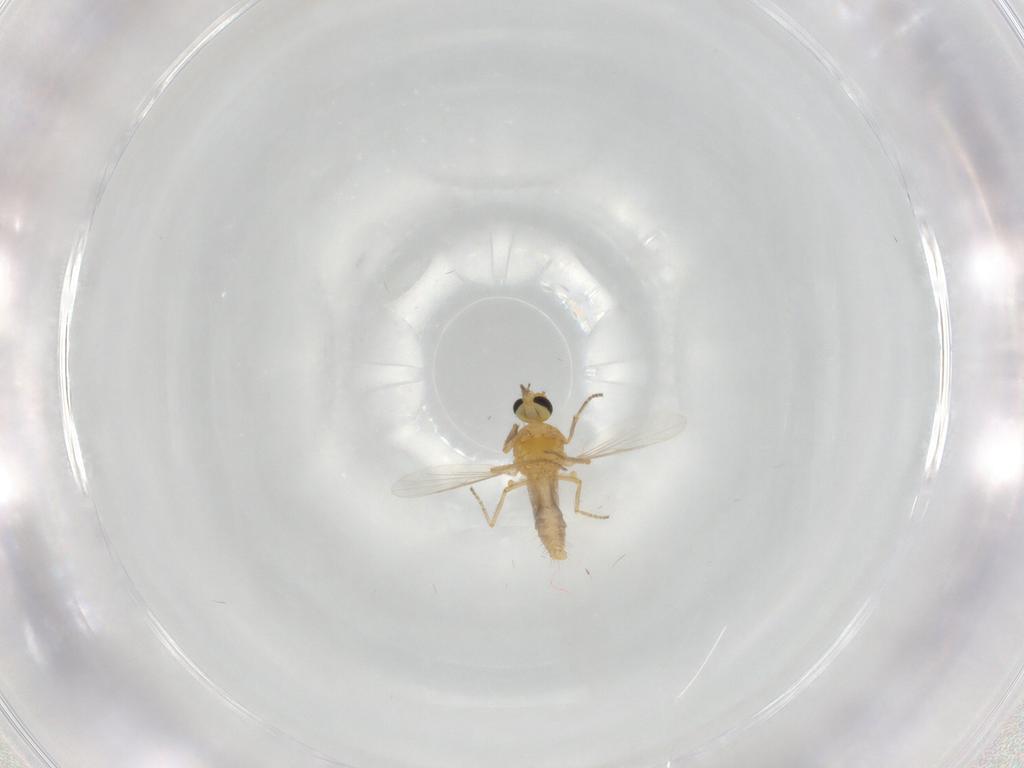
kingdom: Animalia
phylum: Arthropoda
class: Insecta
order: Diptera
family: Ceratopogonidae
